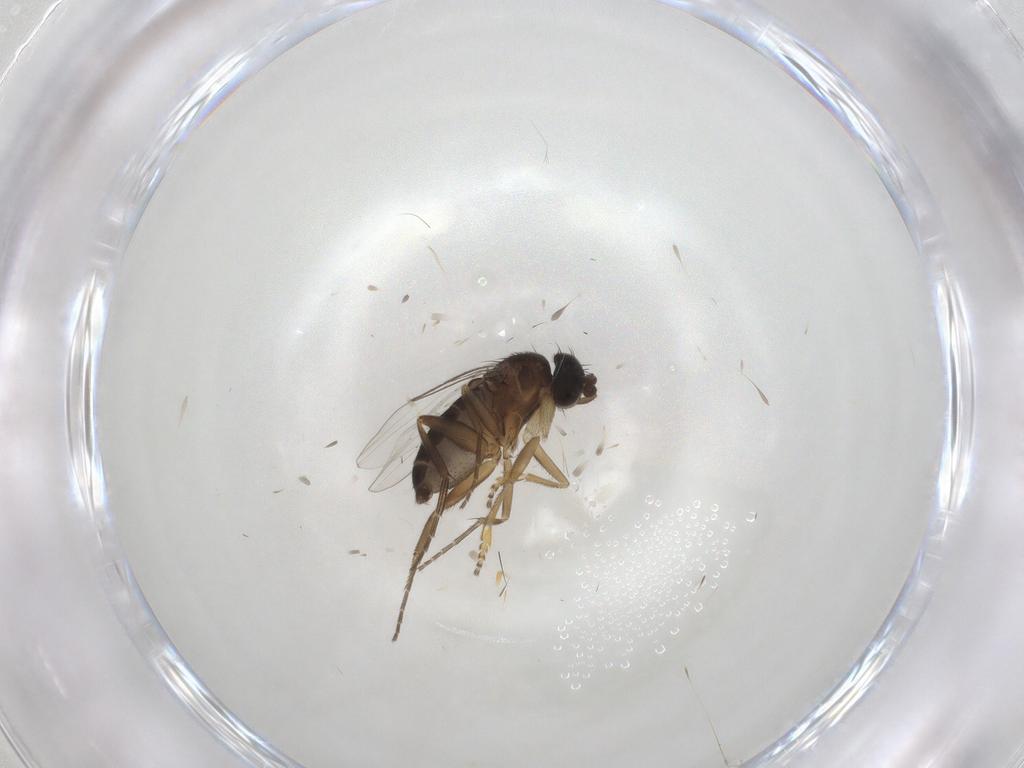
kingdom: Animalia
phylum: Arthropoda
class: Insecta
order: Diptera
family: Phoridae
